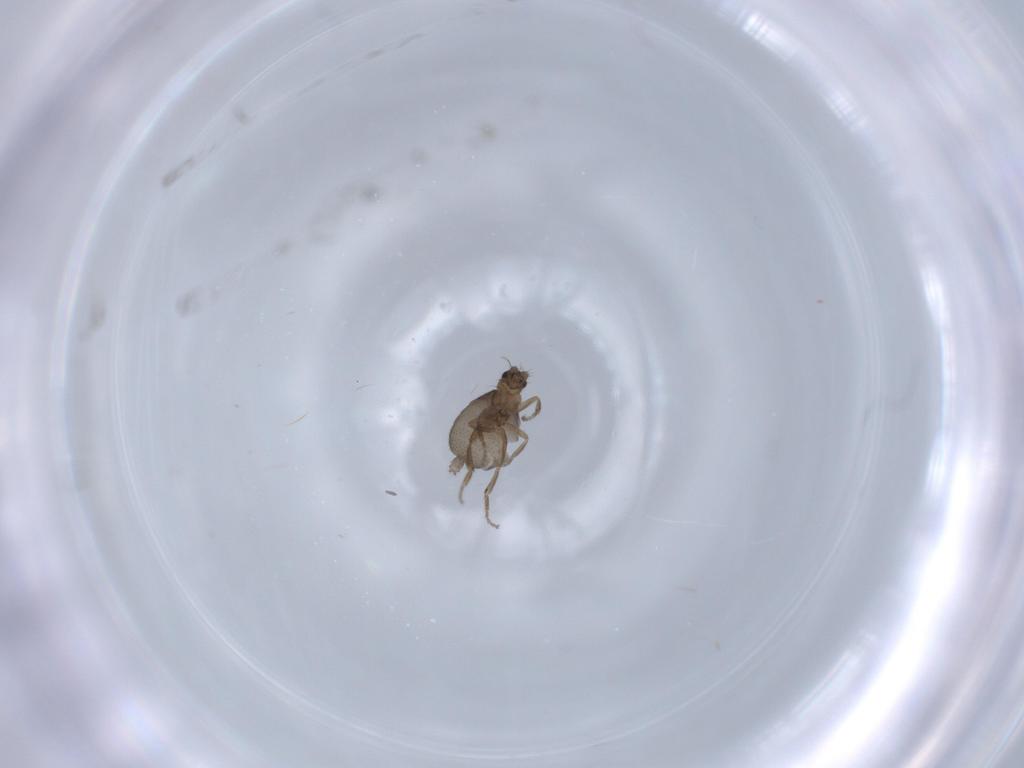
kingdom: Animalia
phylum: Arthropoda
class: Insecta
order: Diptera
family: Phoridae
